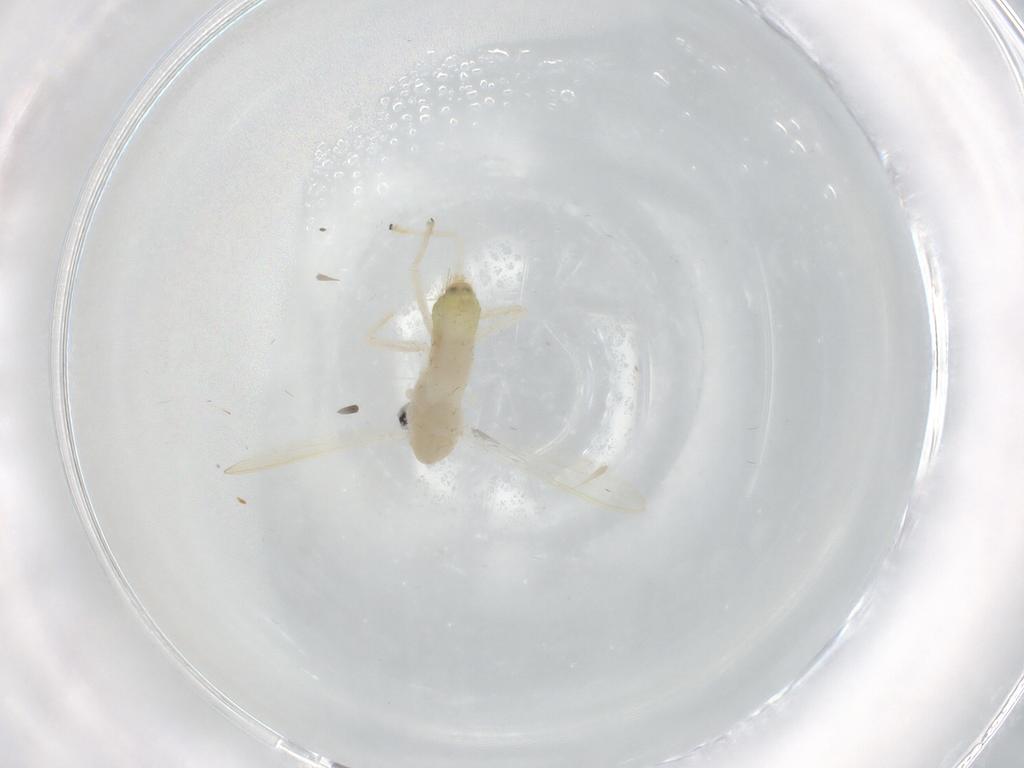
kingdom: Animalia
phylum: Arthropoda
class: Insecta
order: Diptera
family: Sciaridae
